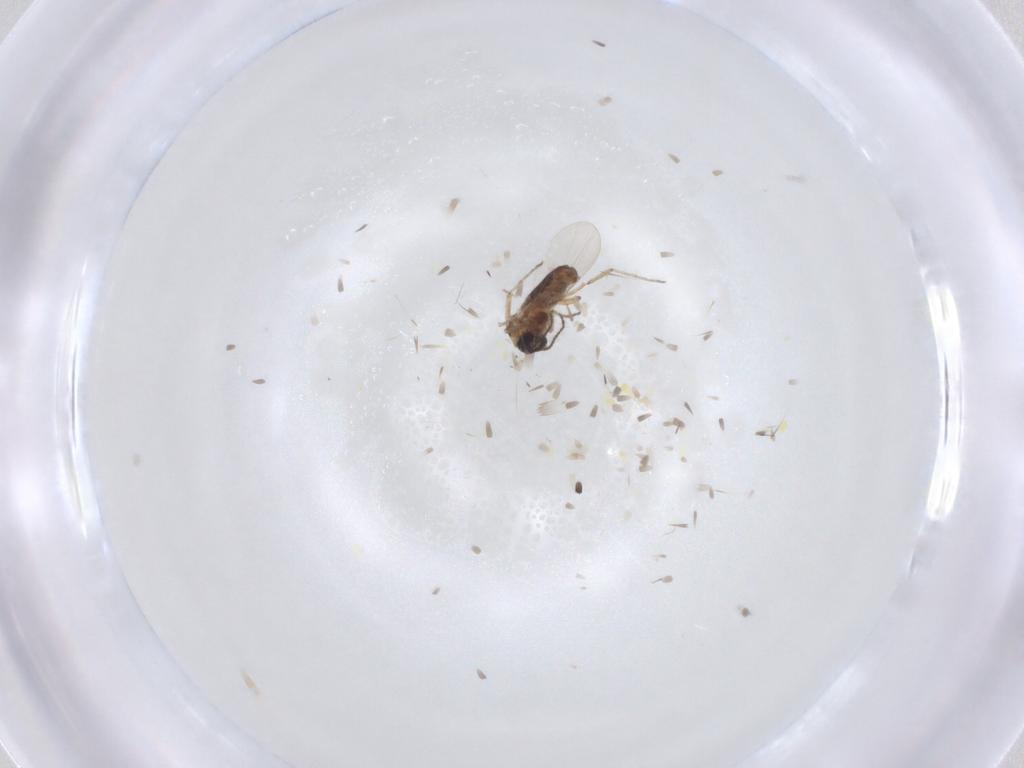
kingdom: Animalia
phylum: Arthropoda
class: Insecta
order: Diptera
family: Ceratopogonidae
